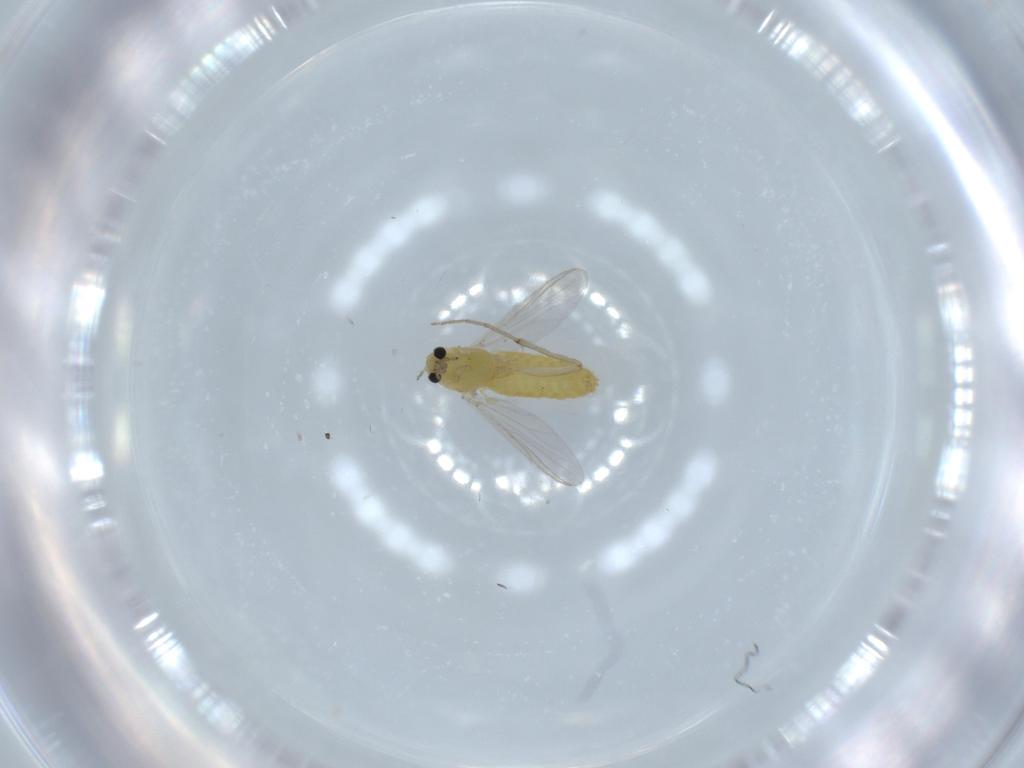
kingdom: Animalia
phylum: Arthropoda
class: Insecta
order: Diptera
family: Chironomidae
